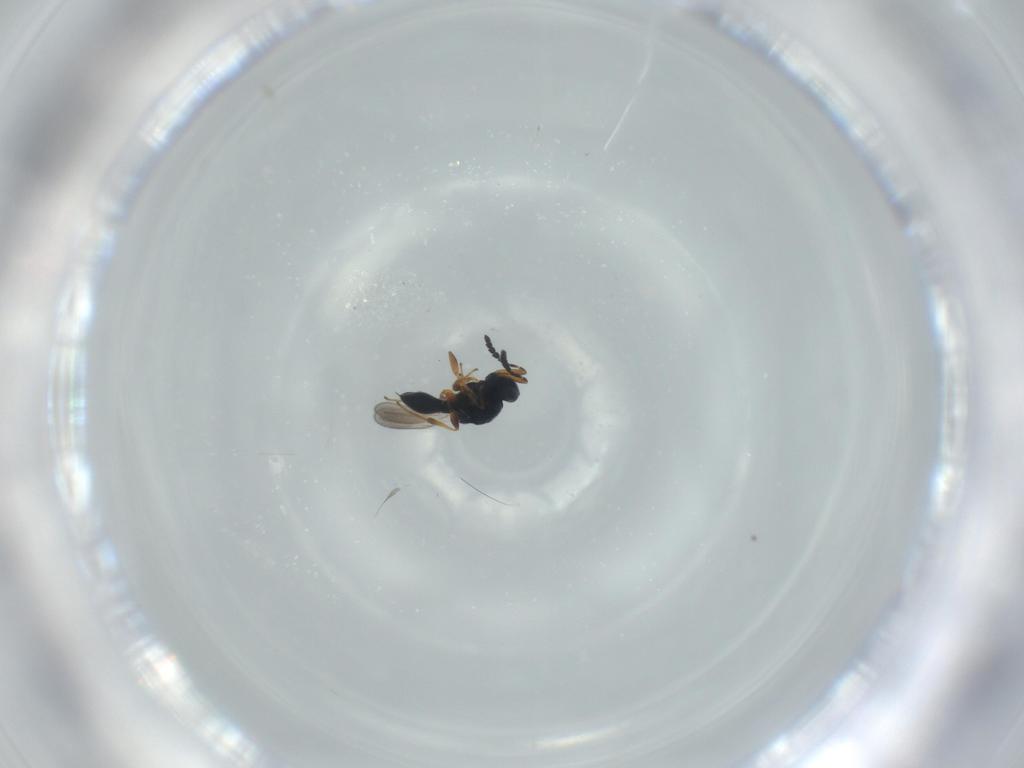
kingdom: Animalia
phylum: Arthropoda
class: Insecta
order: Hymenoptera
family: Platygastridae
